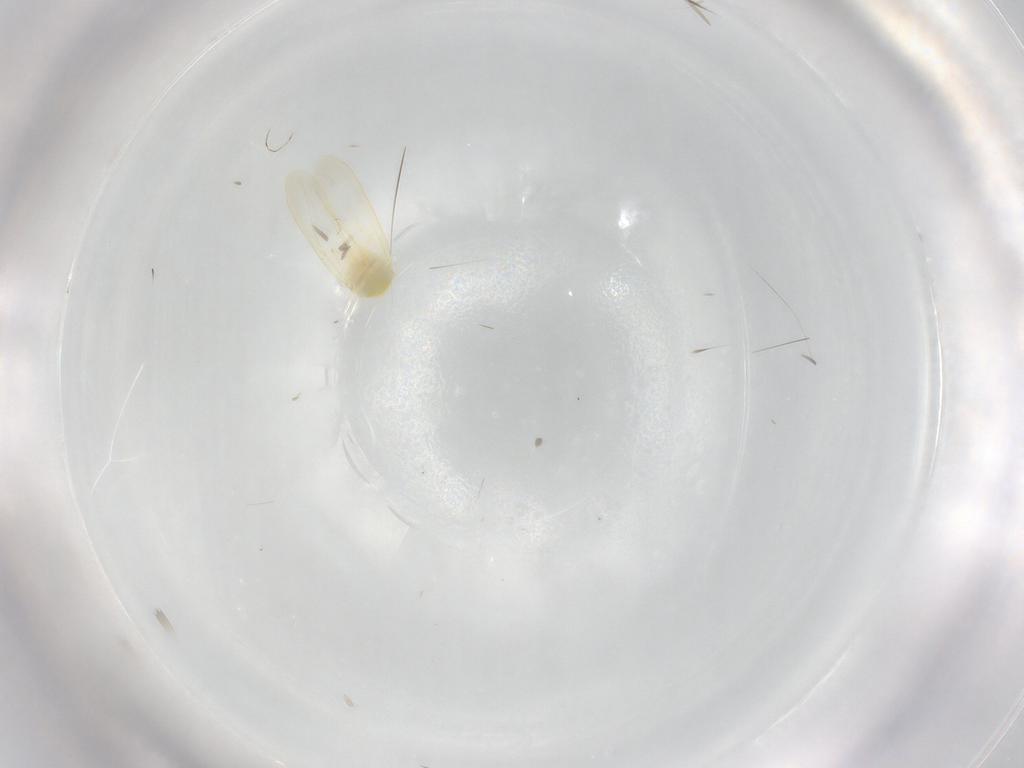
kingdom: Animalia
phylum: Arthropoda
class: Insecta
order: Hemiptera
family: Aleyrodidae
